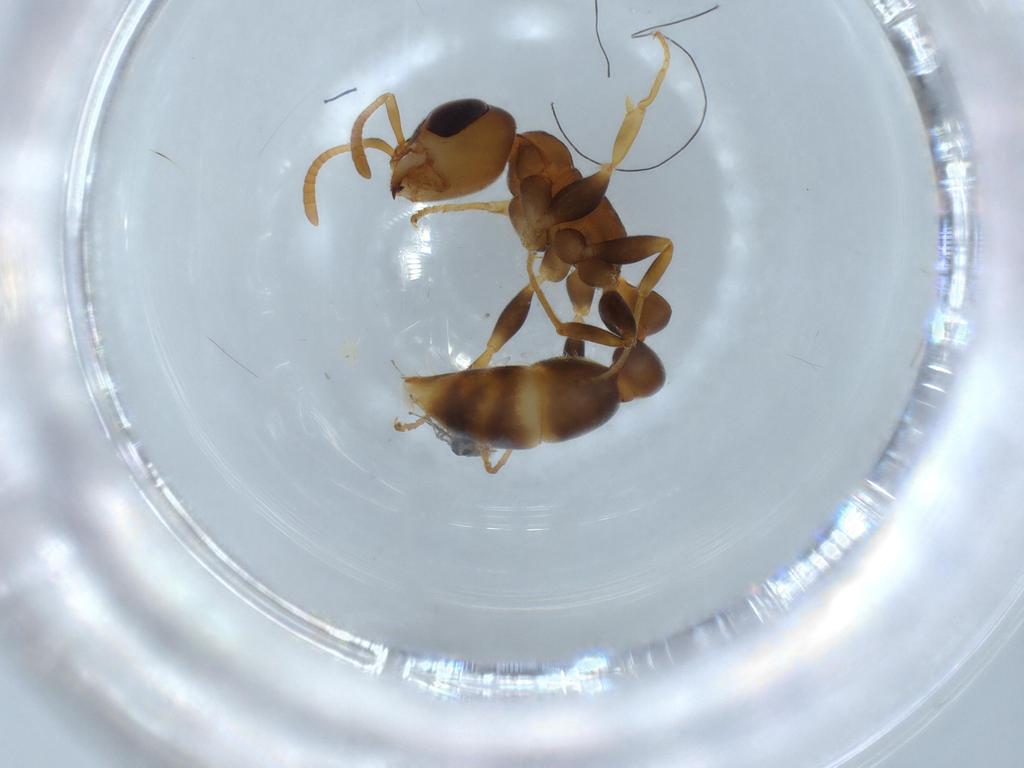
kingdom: Animalia
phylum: Arthropoda
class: Insecta
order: Hymenoptera
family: Formicidae
